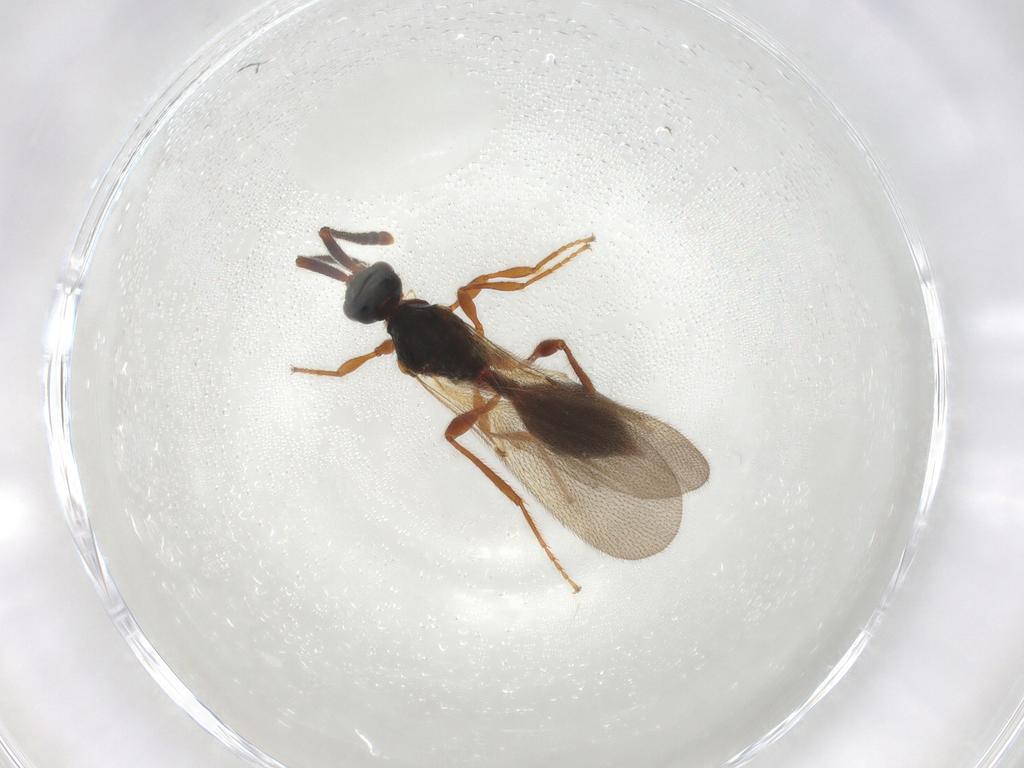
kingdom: Animalia
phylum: Arthropoda
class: Insecta
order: Hymenoptera
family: Diapriidae
